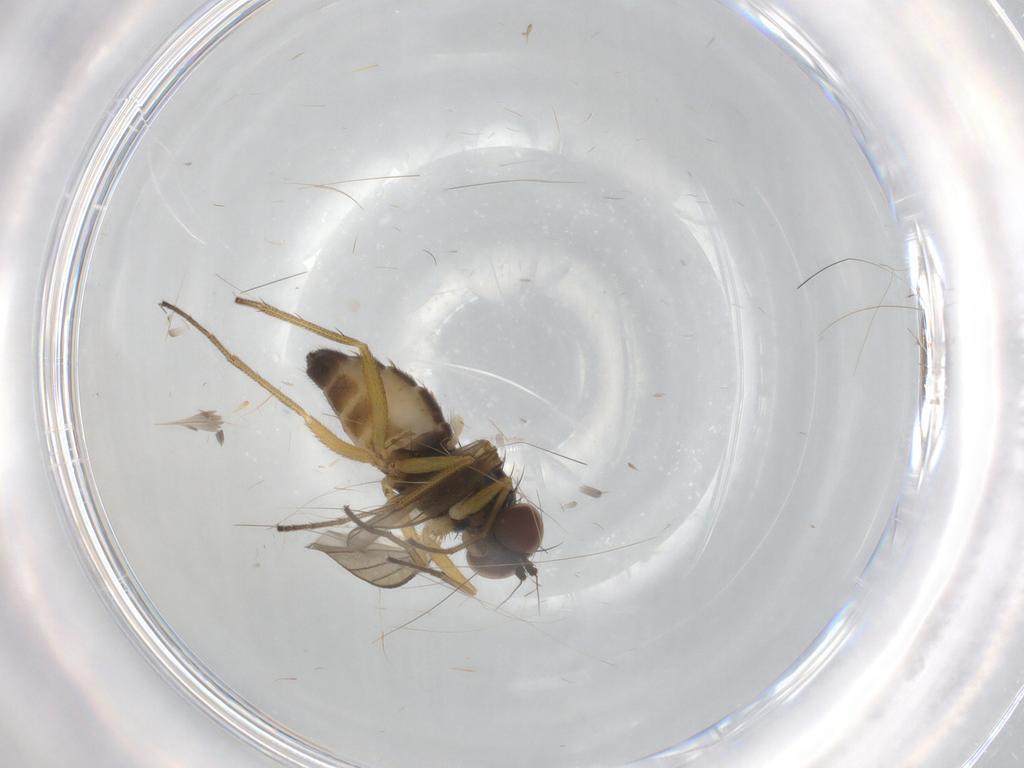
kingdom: Animalia
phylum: Arthropoda
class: Insecta
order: Diptera
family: Dolichopodidae
